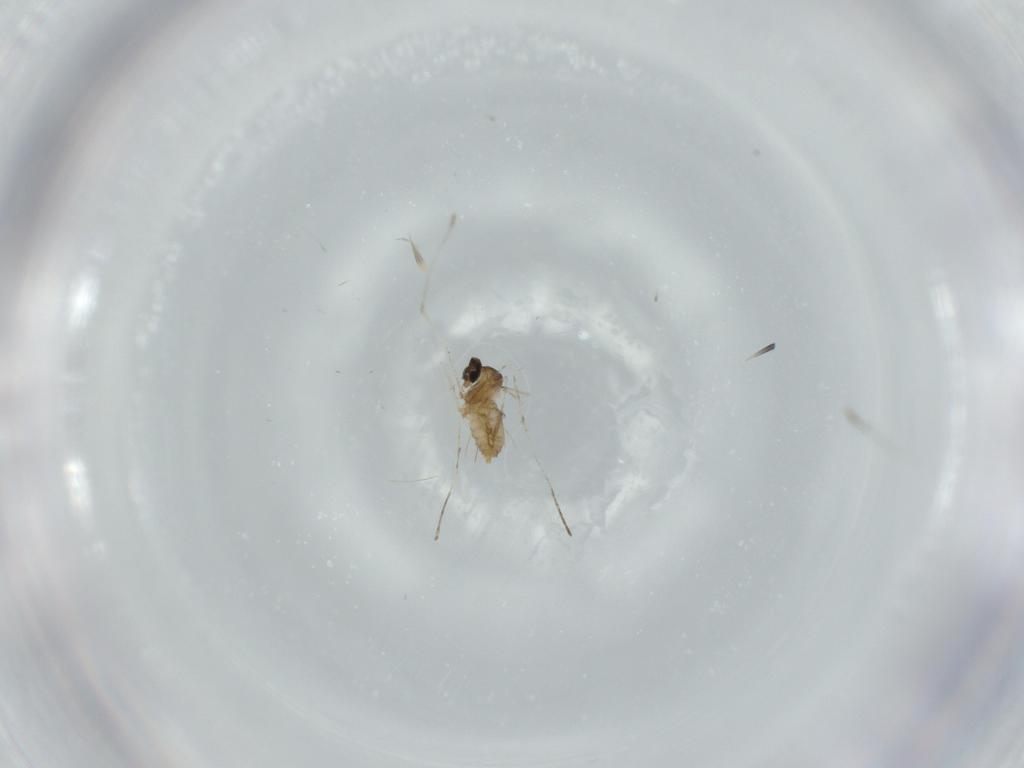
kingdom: Animalia
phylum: Arthropoda
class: Insecta
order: Diptera
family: Cecidomyiidae
